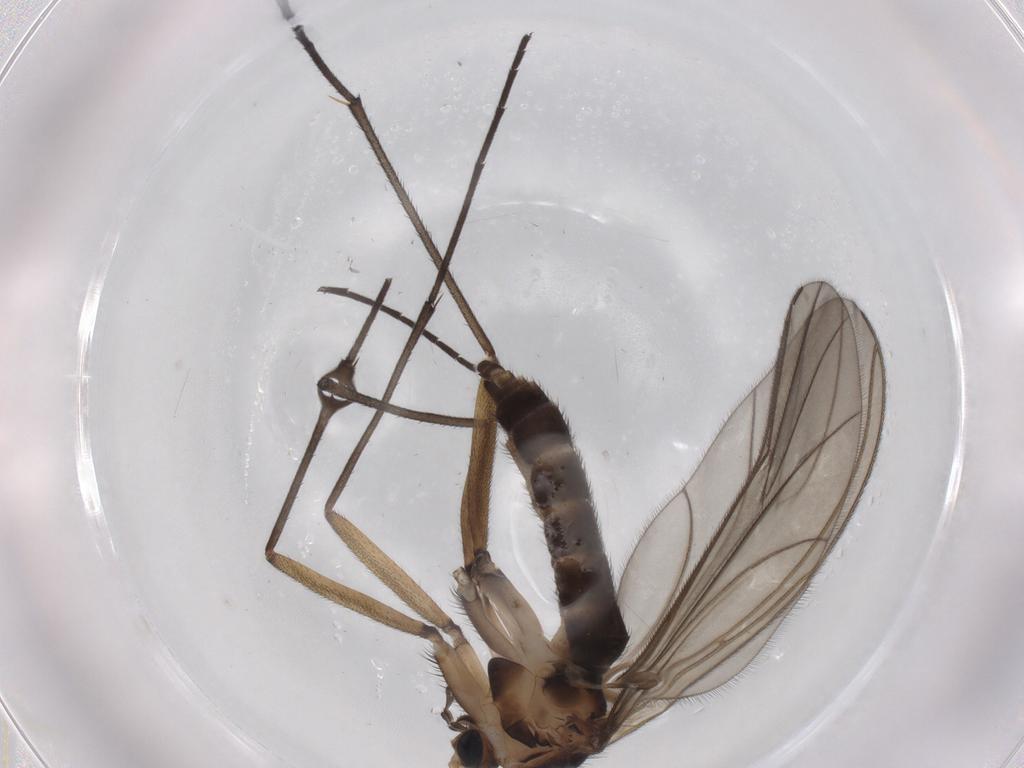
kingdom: Animalia
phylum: Arthropoda
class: Insecta
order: Diptera
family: Sciaridae
